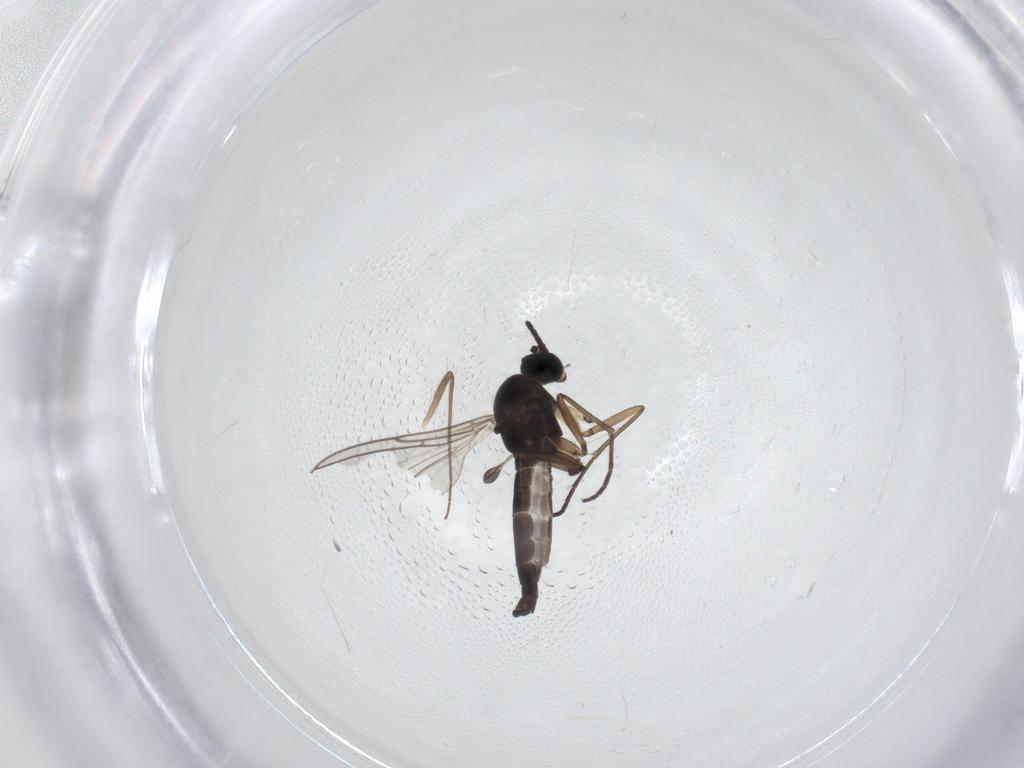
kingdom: Animalia
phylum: Arthropoda
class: Insecta
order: Diptera
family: Sciaridae
